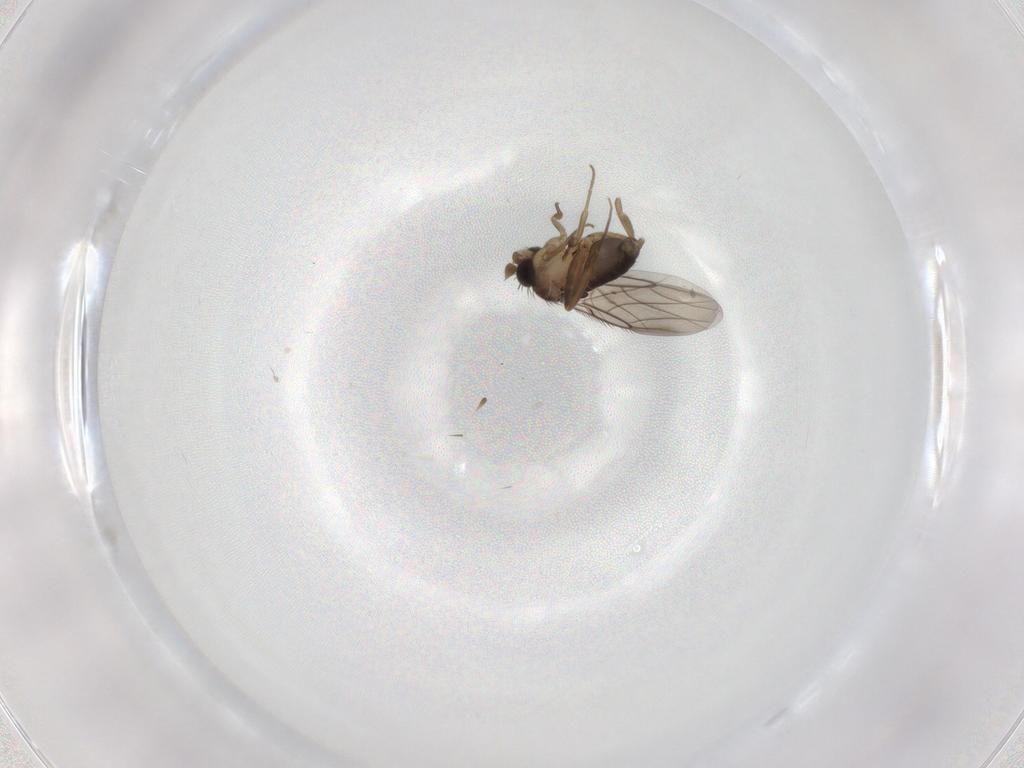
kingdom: Animalia
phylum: Arthropoda
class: Insecta
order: Diptera
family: Phoridae
